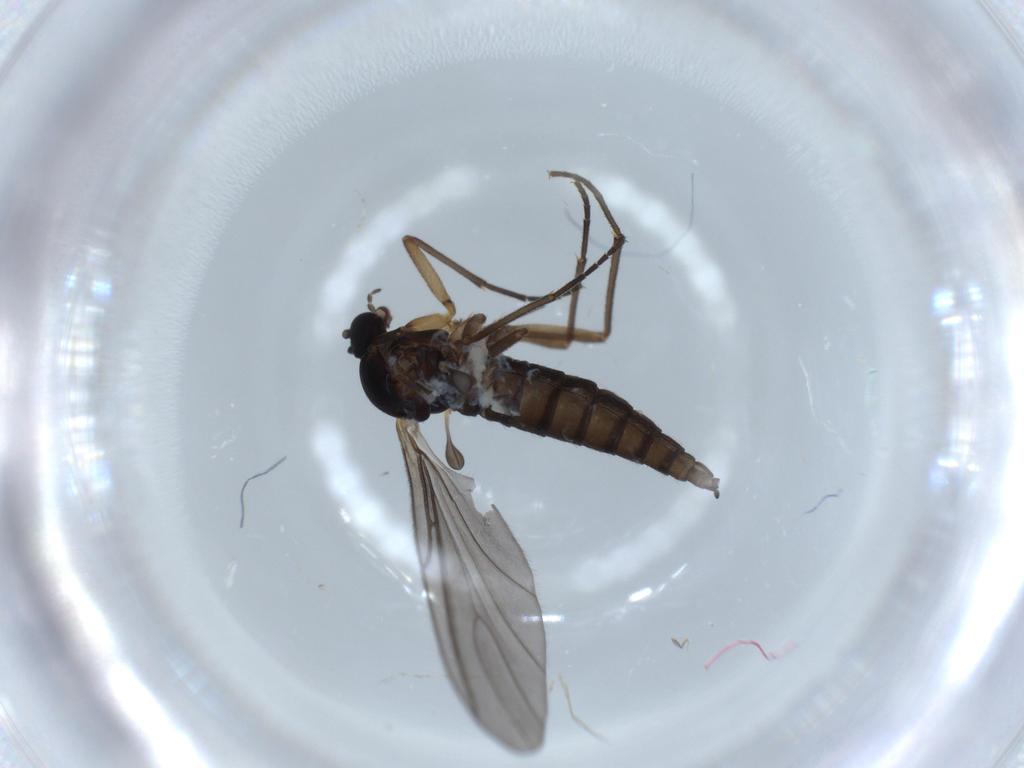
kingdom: Animalia
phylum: Arthropoda
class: Insecta
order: Diptera
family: Sciaridae
